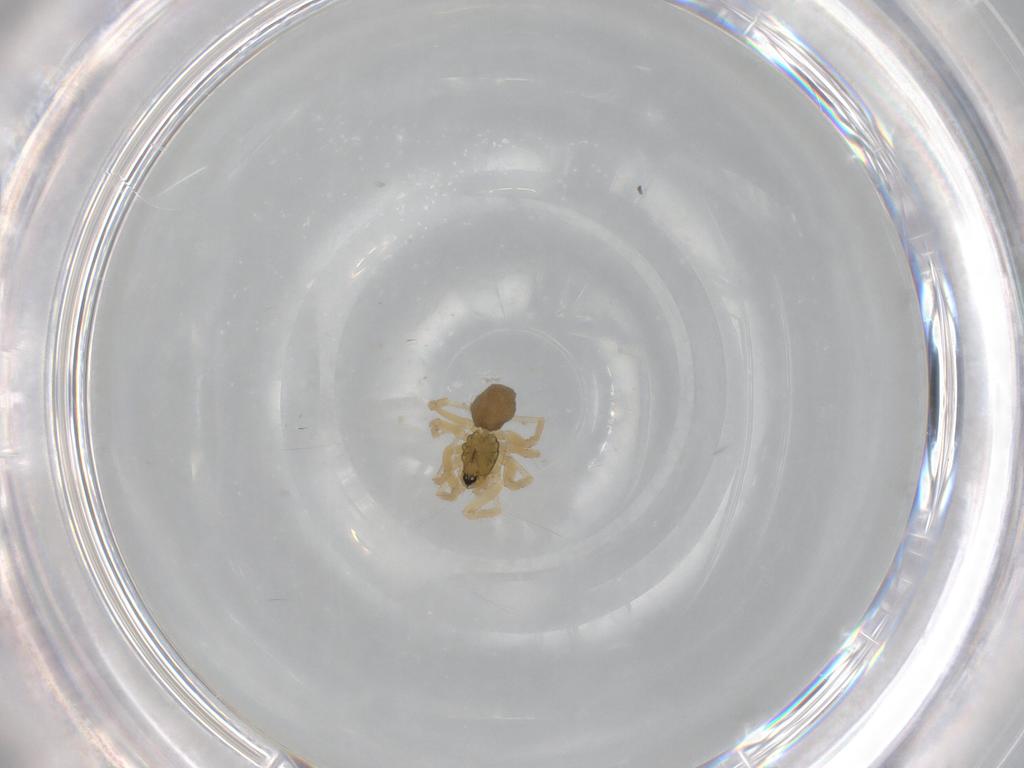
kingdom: Animalia
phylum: Arthropoda
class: Arachnida
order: Araneae
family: Linyphiidae
